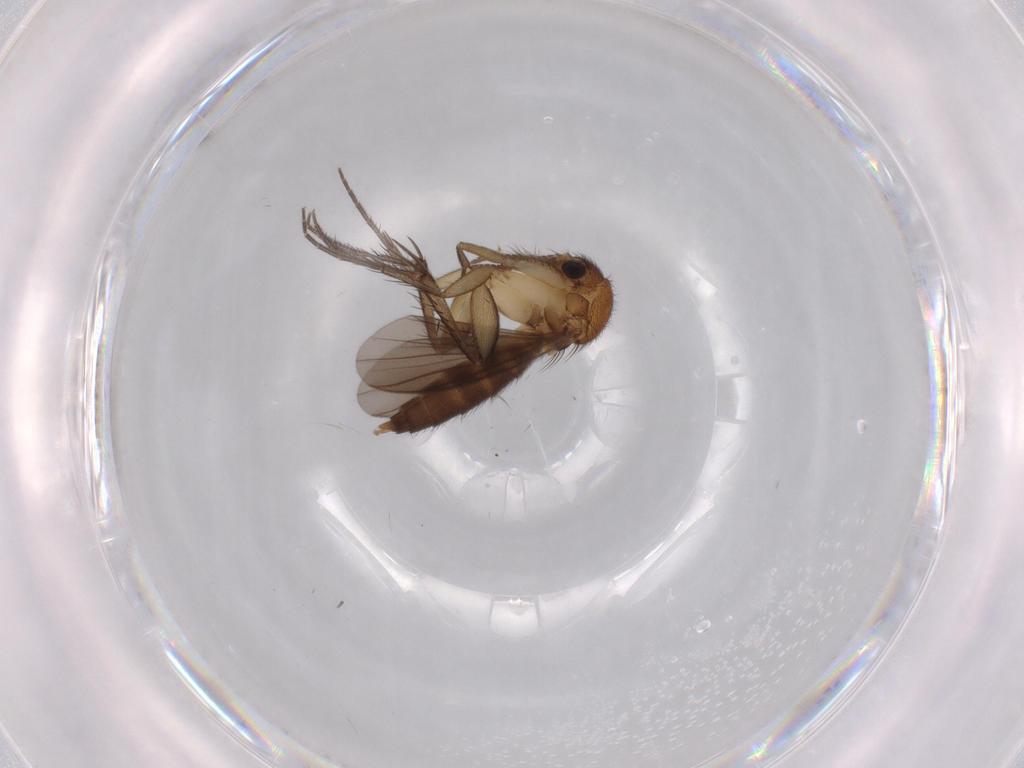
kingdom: Animalia
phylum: Arthropoda
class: Insecta
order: Diptera
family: Mycetophilidae
